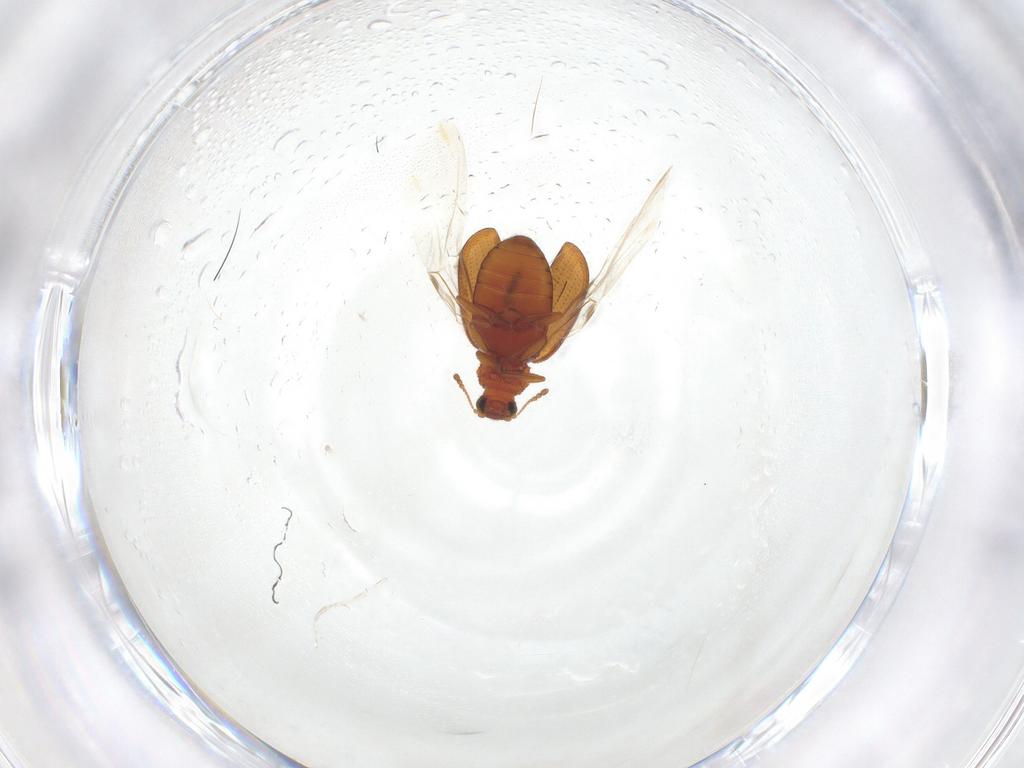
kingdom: Animalia
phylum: Arthropoda
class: Insecta
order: Coleoptera
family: Latridiidae
